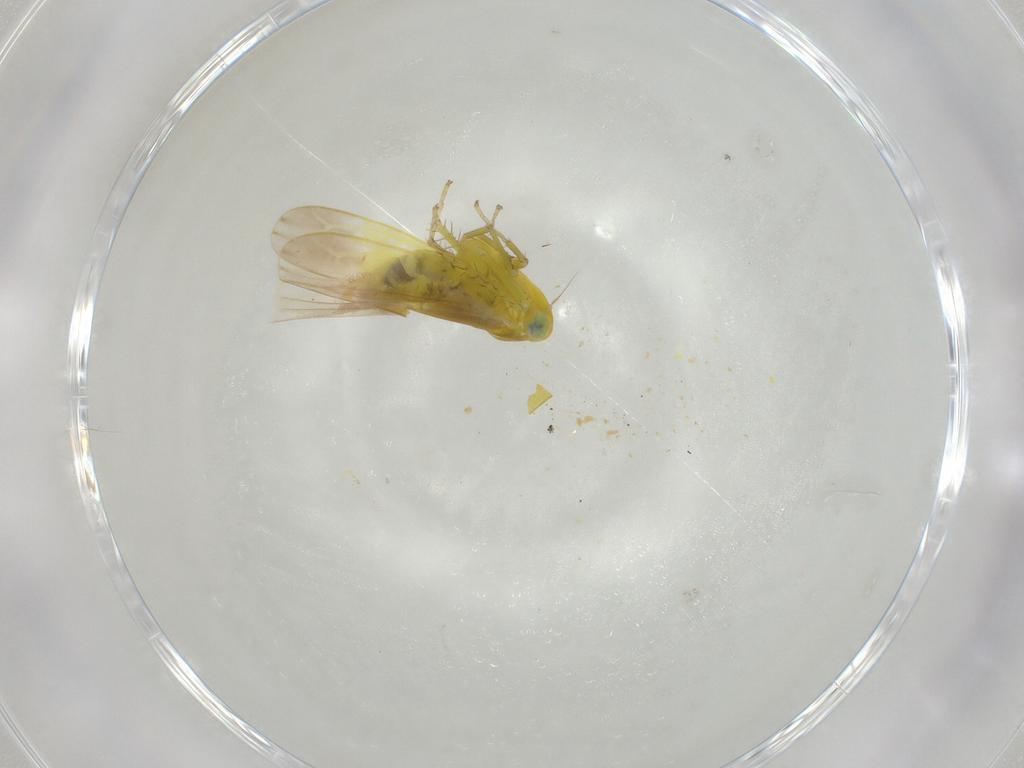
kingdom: Animalia
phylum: Arthropoda
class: Insecta
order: Hemiptera
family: Cicadellidae
